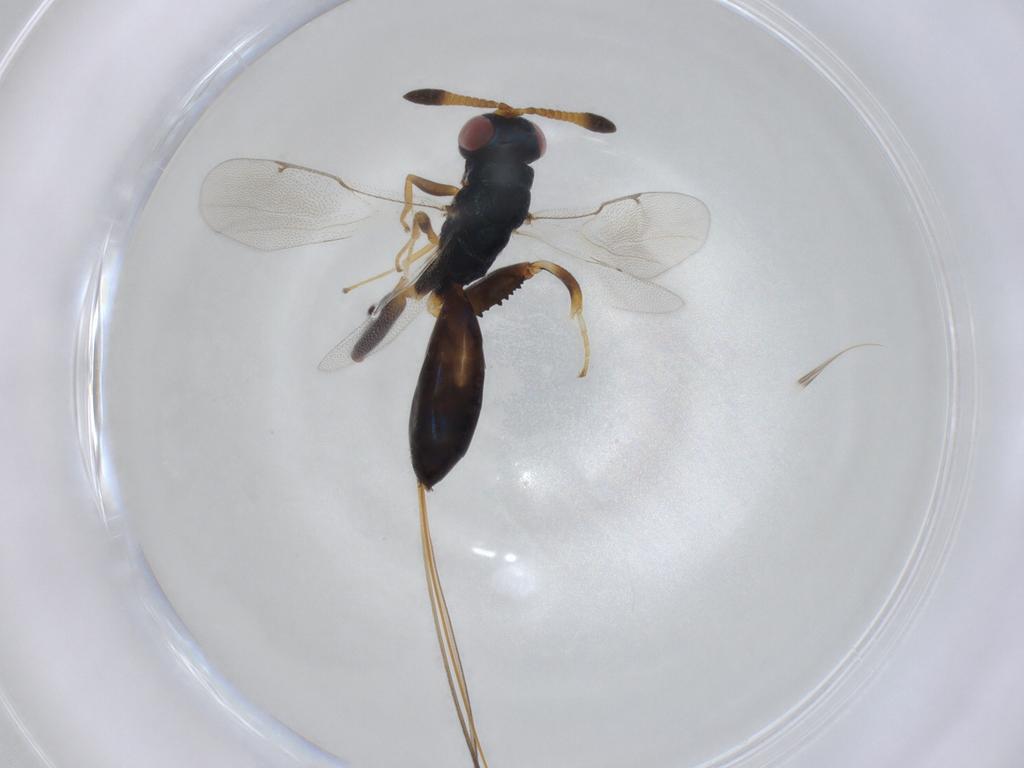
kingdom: Animalia
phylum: Arthropoda
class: Insecta
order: Hymenoptera
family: Torymidae
